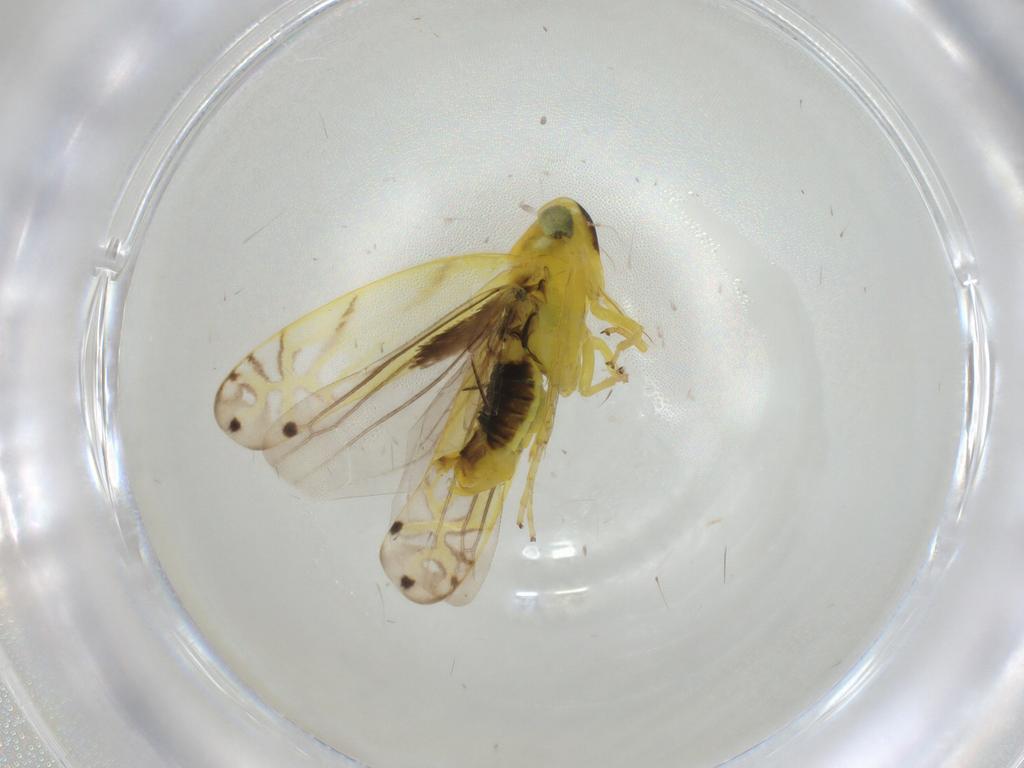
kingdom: Animalia
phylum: Arthropoda
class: Insecta
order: Hemiptera
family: Cicadellidae
